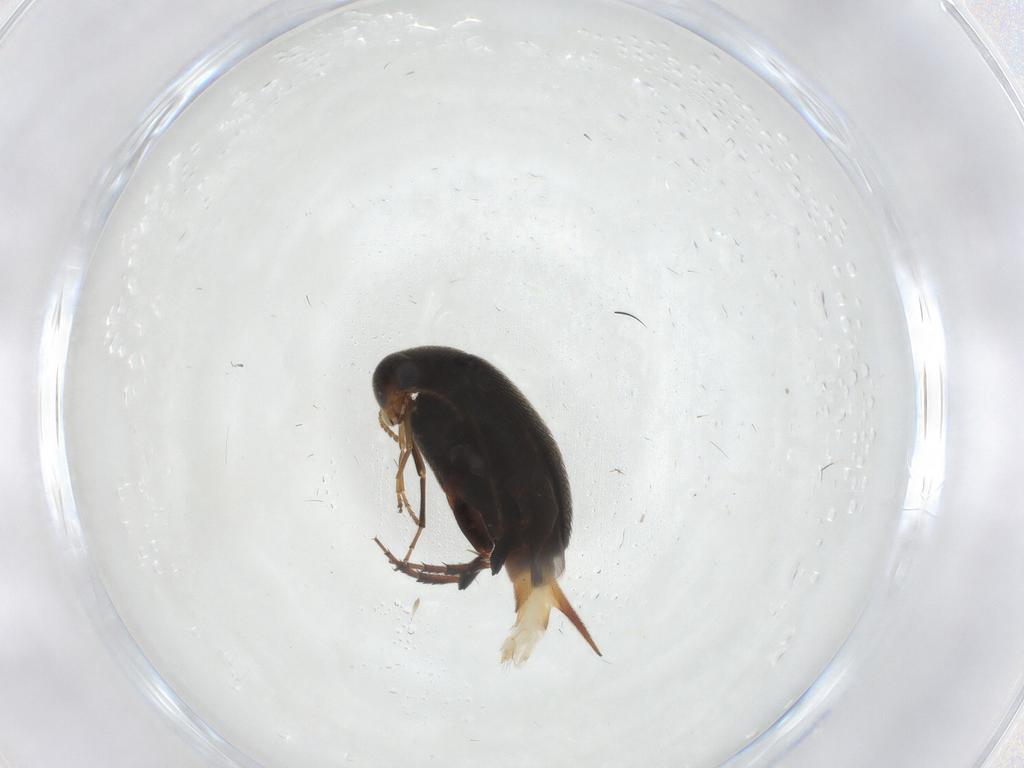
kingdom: Animalia
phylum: Arthropoda
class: Insecta
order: Coleoptera
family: Mordellidae
